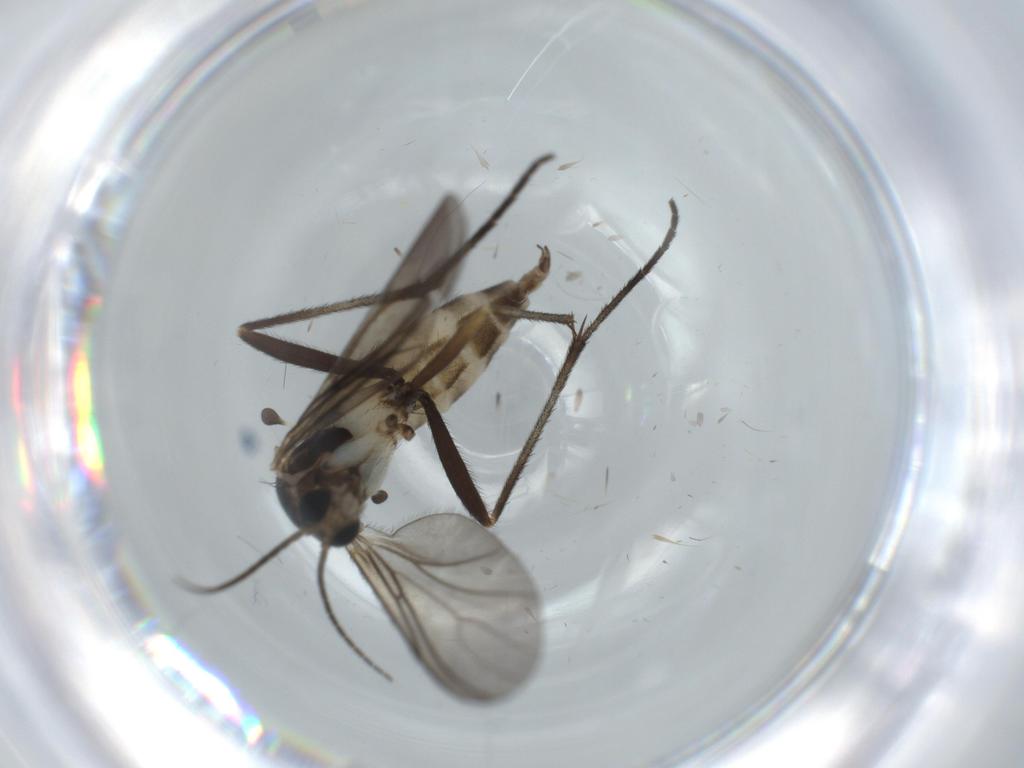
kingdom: Animalia
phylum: Arthropoda
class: Insecta
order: Diptera
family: Sciaridae
